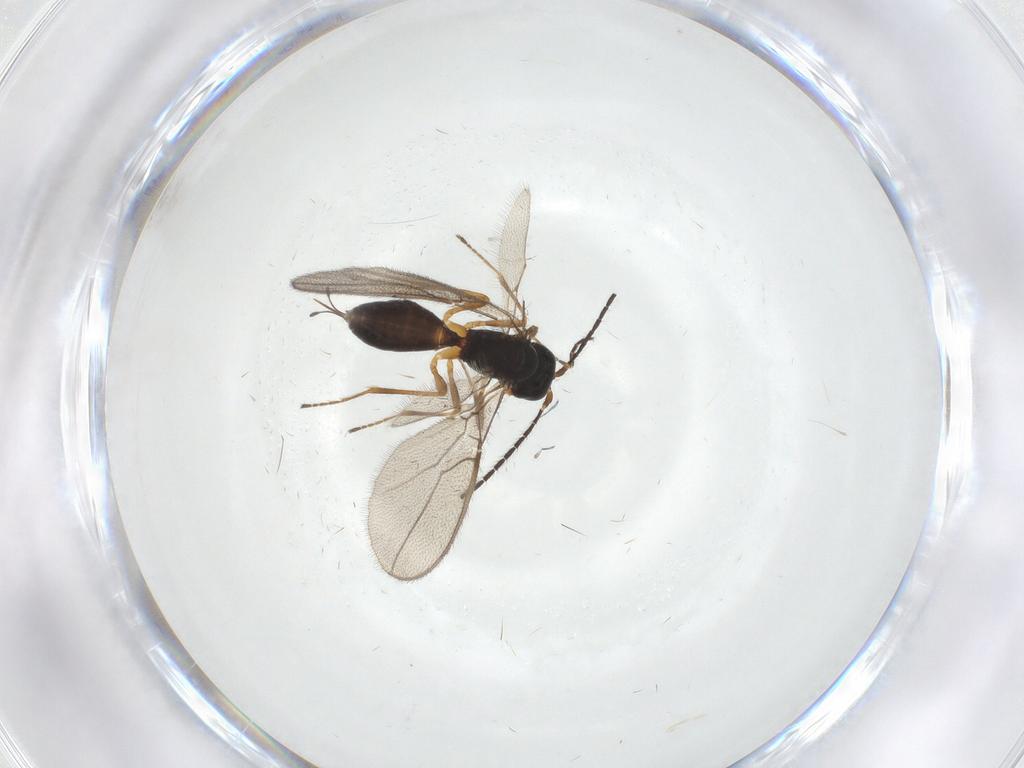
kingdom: Animalia
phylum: Arthropoda
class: Insecta
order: Hymenoptera
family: Braconidae
